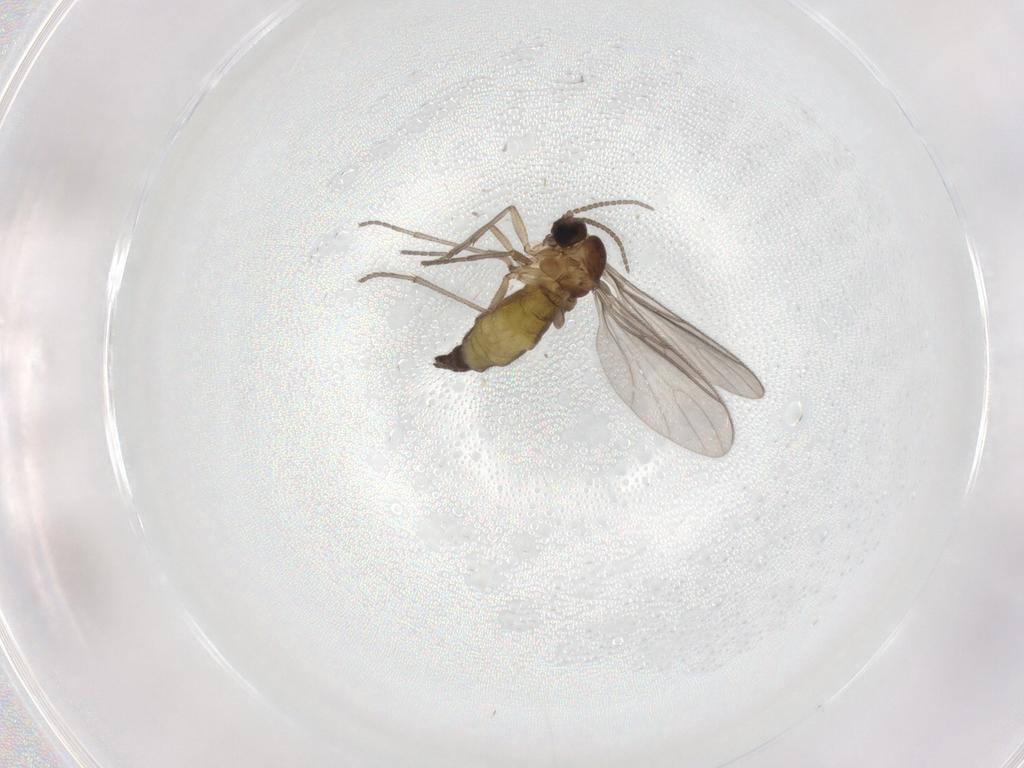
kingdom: Animalia
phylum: Arthropoda
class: Insecta
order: Diptera
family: Sciaridae
